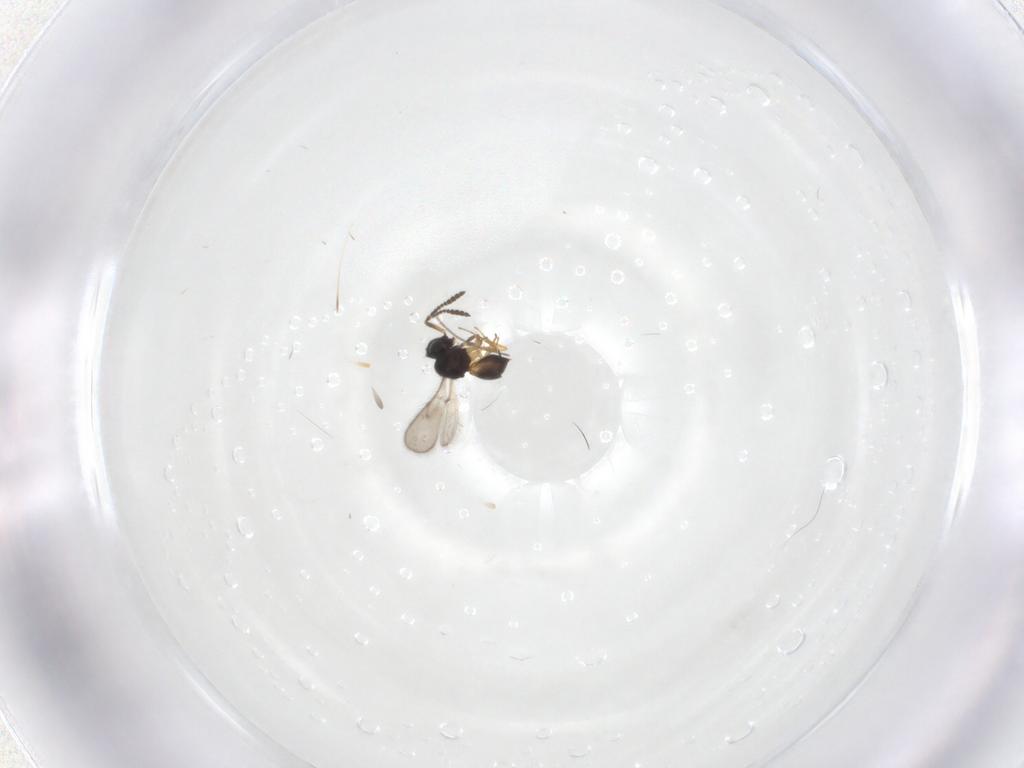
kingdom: Animalia
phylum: Arthropoda
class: Insecta
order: Hymenoptera
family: Scelionidae
